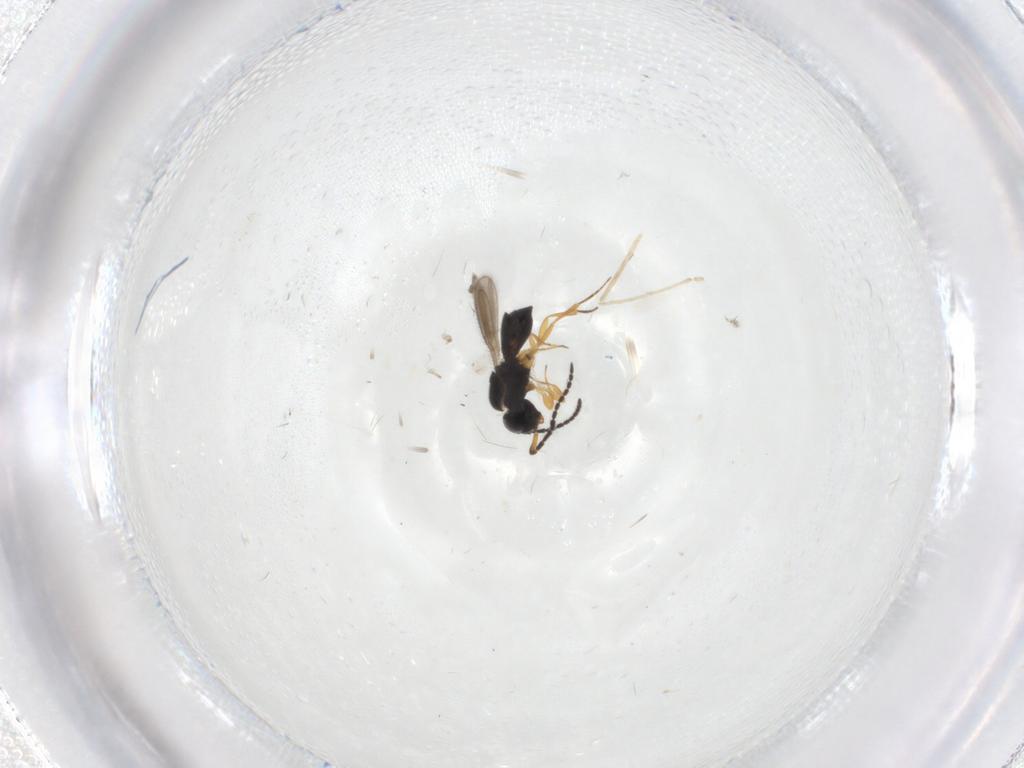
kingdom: Animalia
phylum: Arthropoda
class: Insecta
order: Hymenoptera
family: Scelionidae
